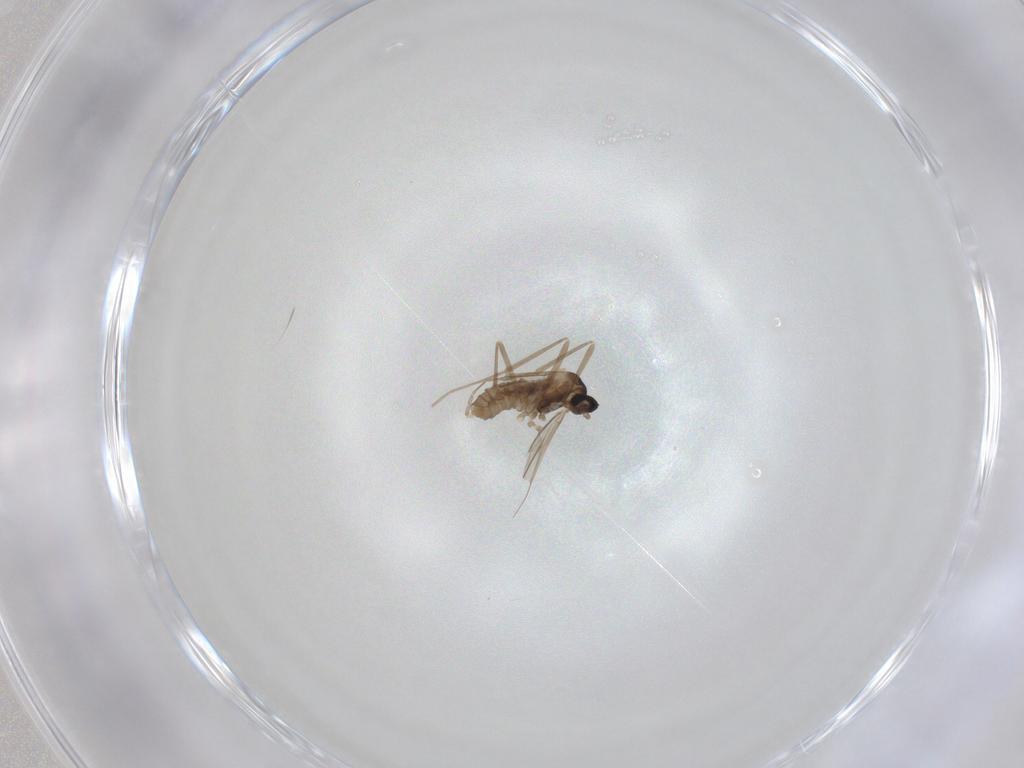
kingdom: Animalia
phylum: Arthropoda
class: Insecta
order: Diptera
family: Cecidomyiidae
